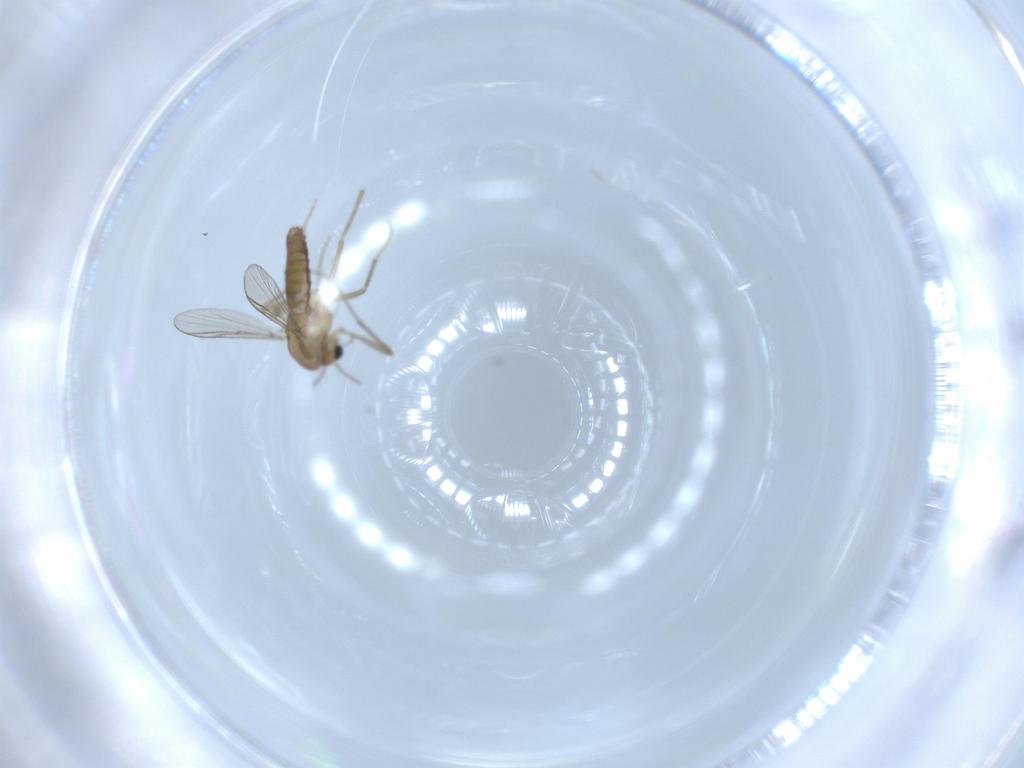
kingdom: Animalia
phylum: Arthropoda
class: Insecta
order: Diptera
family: Chironomidae
